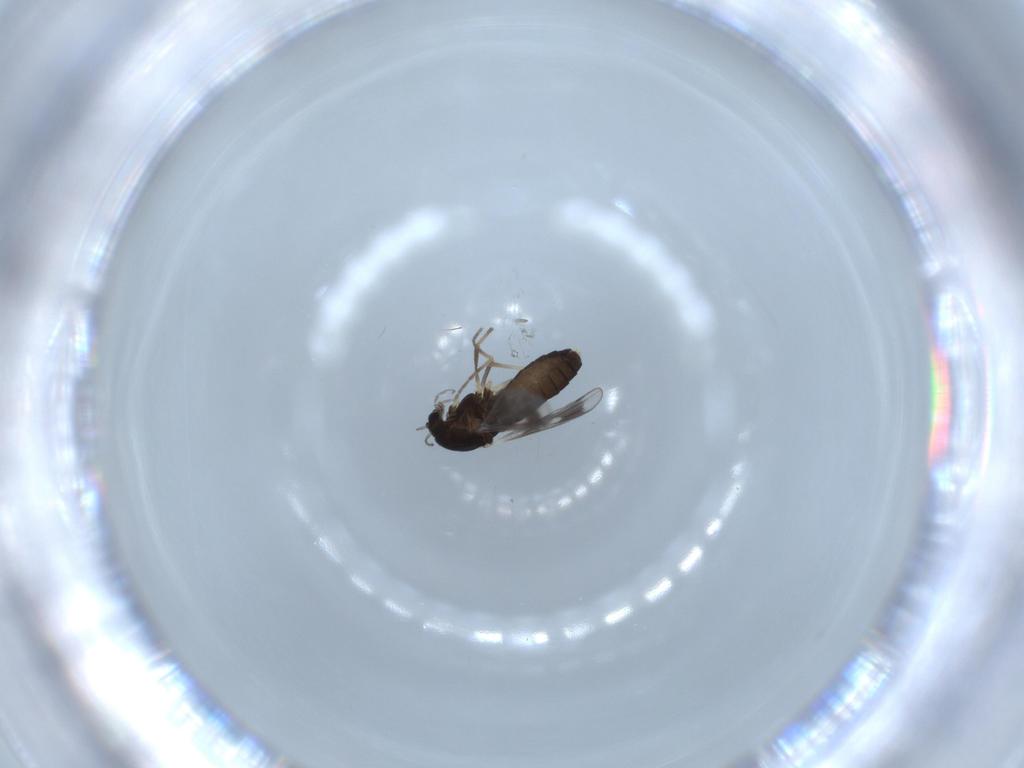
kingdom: Animalia
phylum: Arthropoda
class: Insecta
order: Diptera
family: Chironomidae
